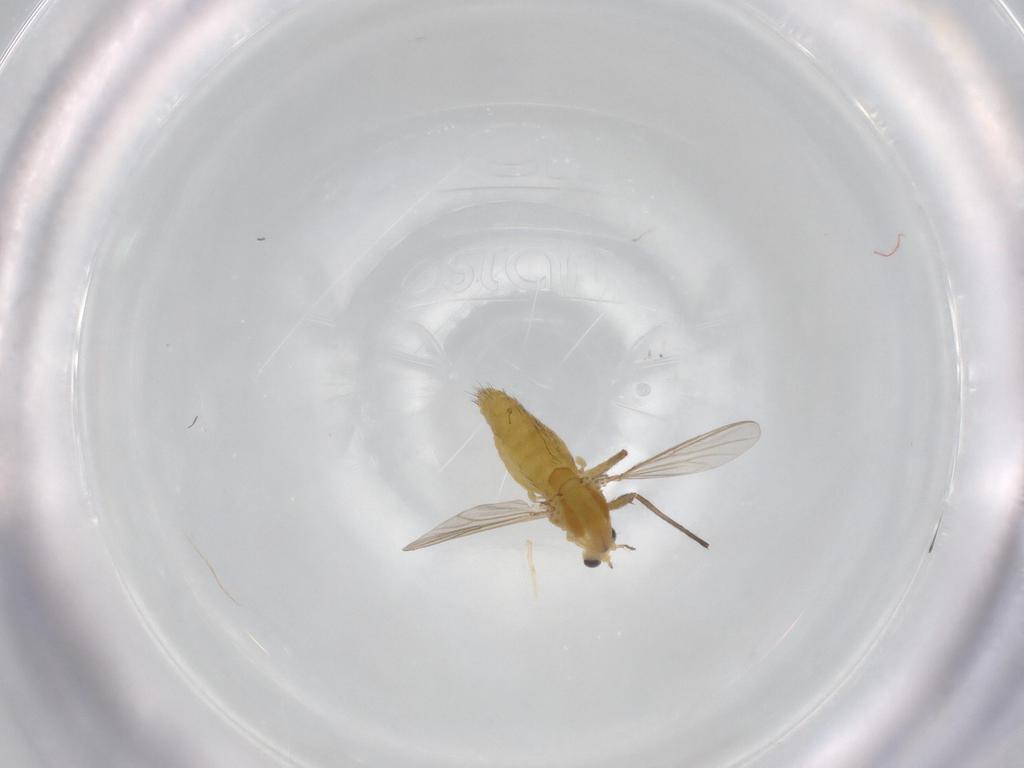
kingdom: Animalia
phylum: Arthropoda
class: Insecta
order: Diptera
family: Chironomidae
